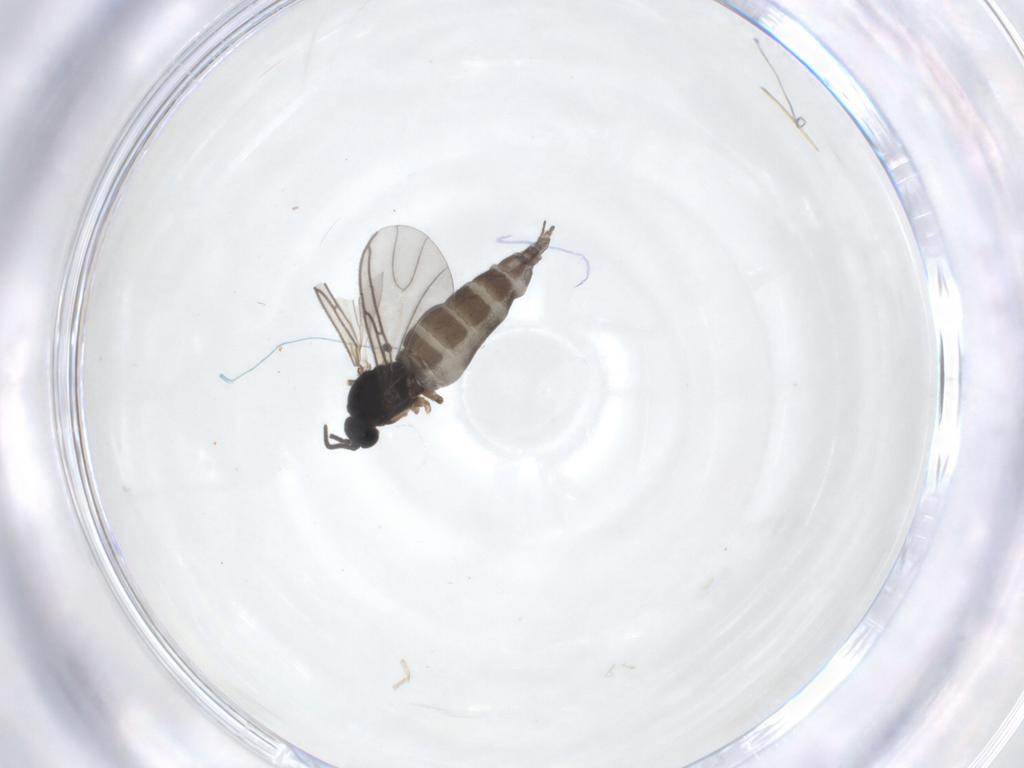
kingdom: Animalia
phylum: Arthropoda
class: Insecta
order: Diptera
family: Sciaridae
